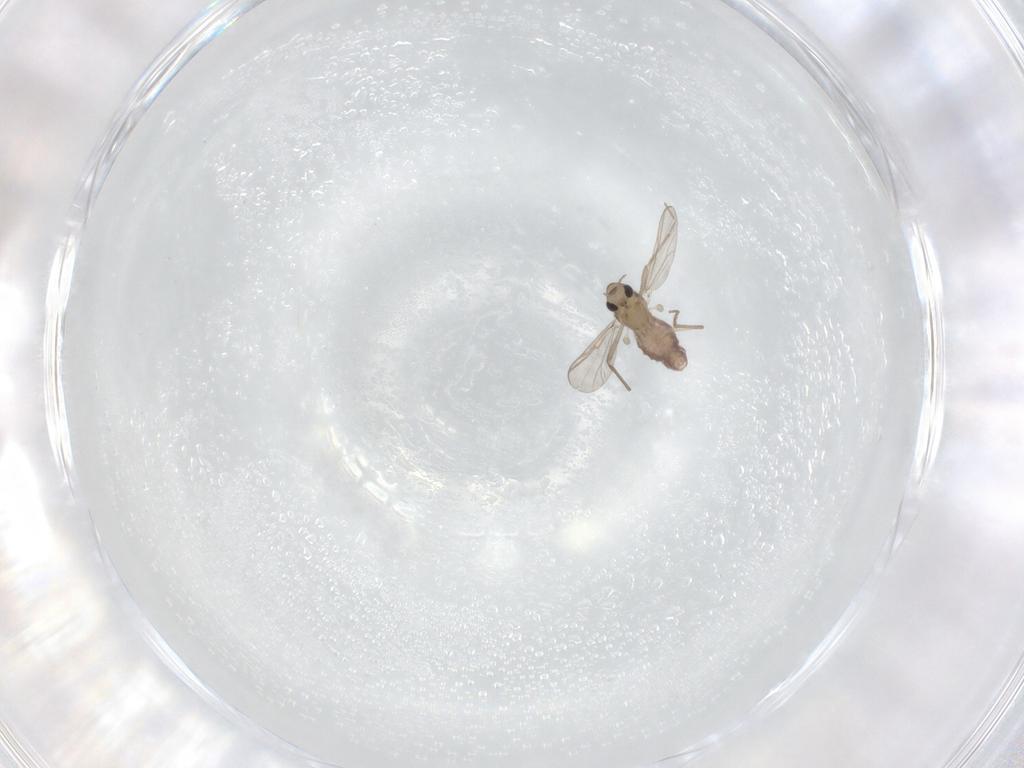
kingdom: Animalia
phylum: Arthropoda
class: Insecta
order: Diptera
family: Chironomidae
